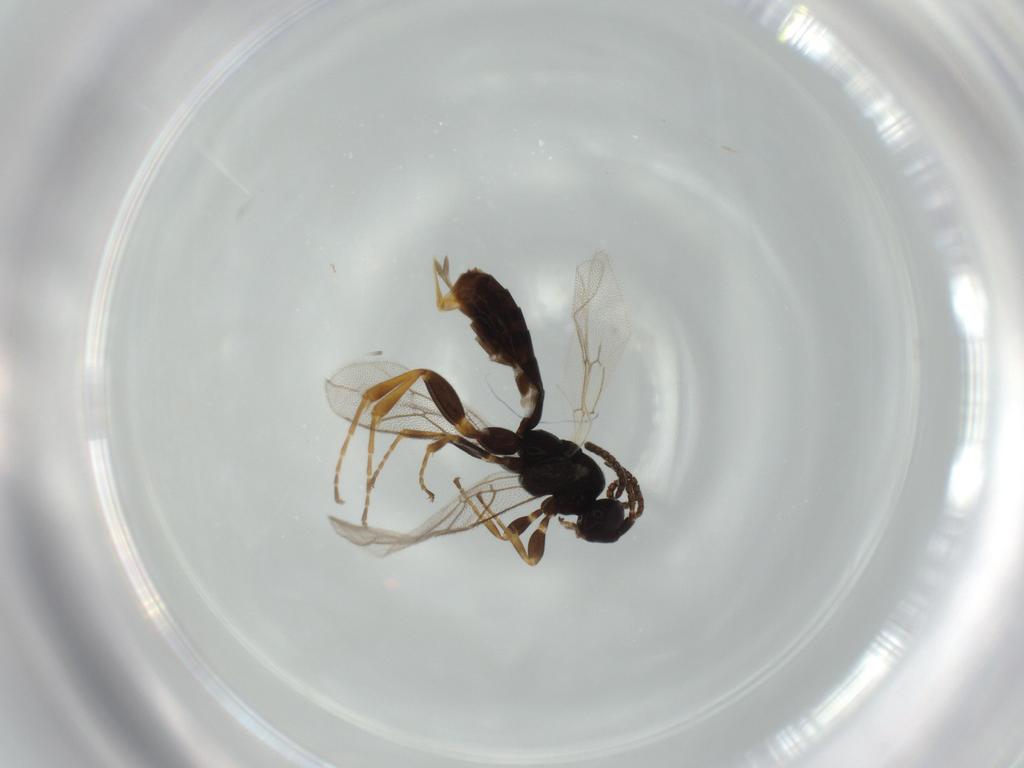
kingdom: Animalia
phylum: Arthropoda
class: Insecta
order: Hymenoptera
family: Ichneumonidae
